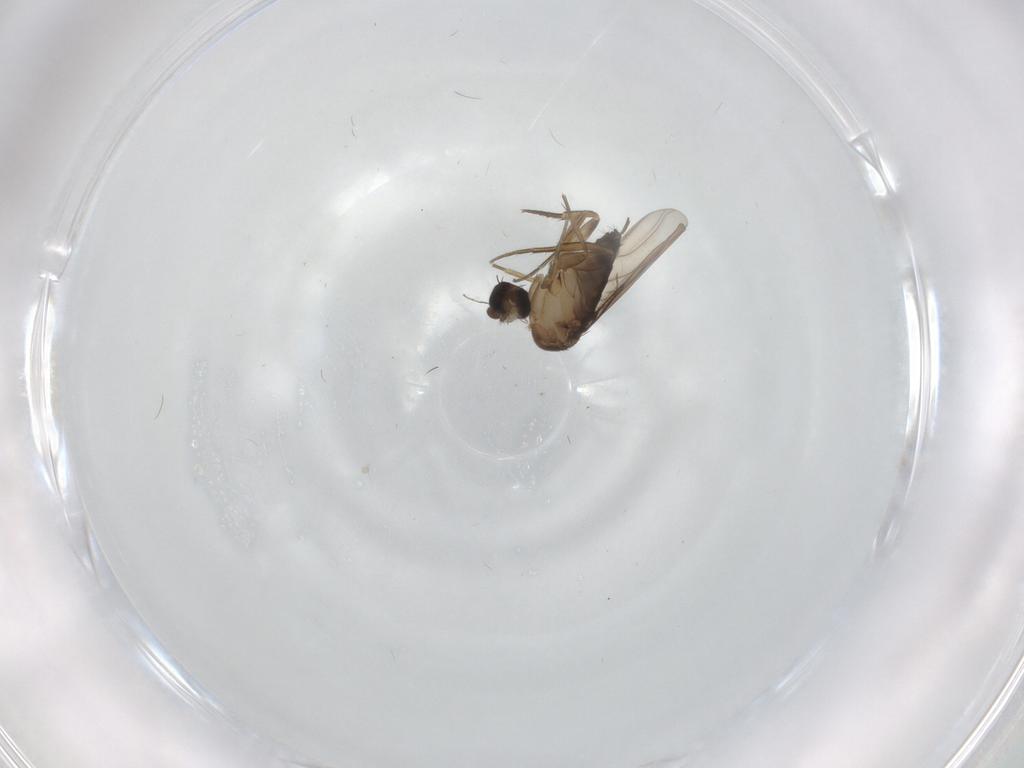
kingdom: Animalia
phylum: Arthropoda
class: Insecta
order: Diptera
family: Phoridae
